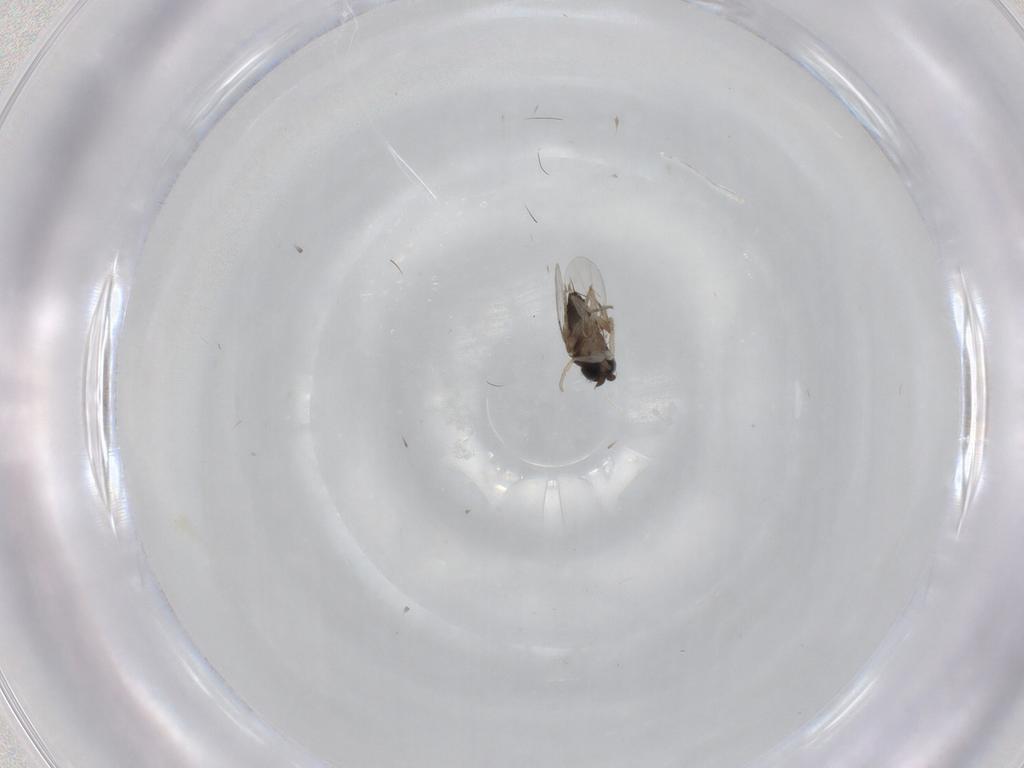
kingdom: Animalia
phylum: Arthropoda
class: Insecta
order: Diptera
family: Phoridae
